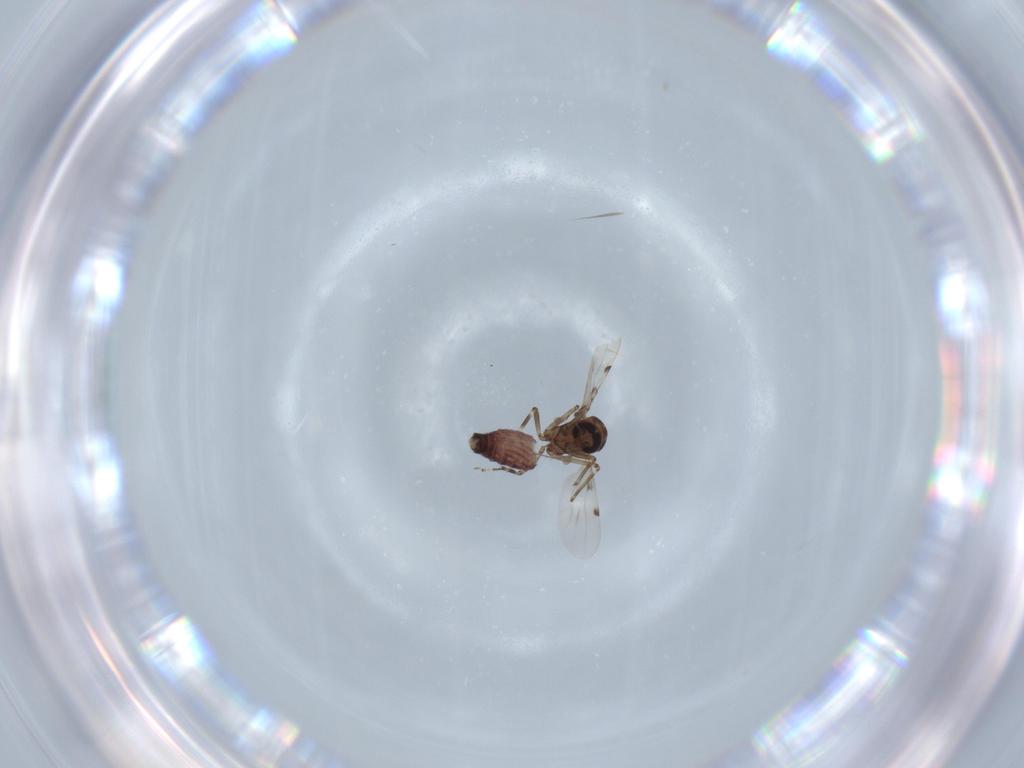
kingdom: Animalia
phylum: Arthropoda
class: Insecta
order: Diptera
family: Ceratopogonidae
